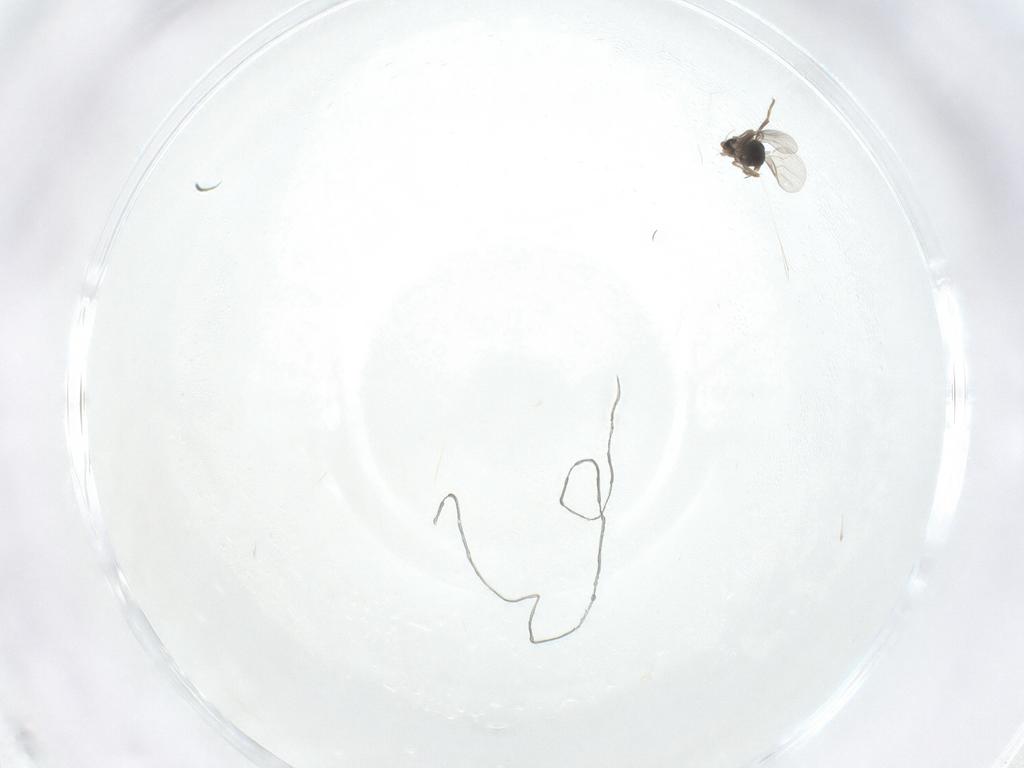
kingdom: Animalia
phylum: Arthropoda
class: Insecta
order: Diptera
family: Phoridae
